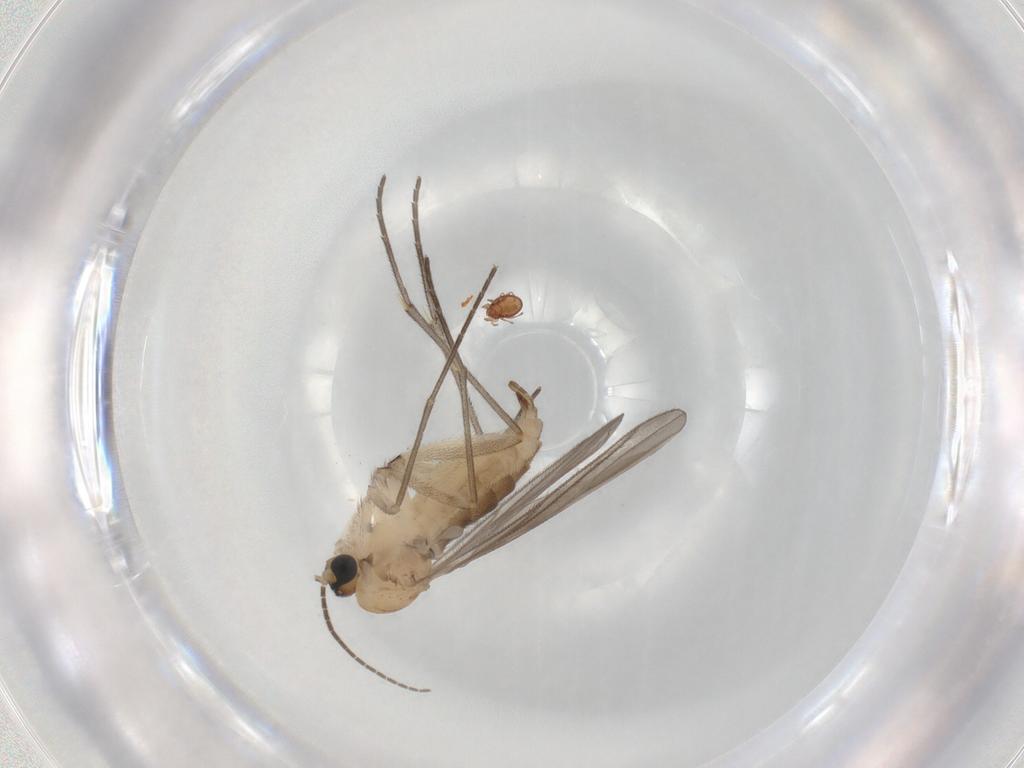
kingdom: Animalia
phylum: Arthropoda
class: Insecta
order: Diptera
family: Sciaridae
